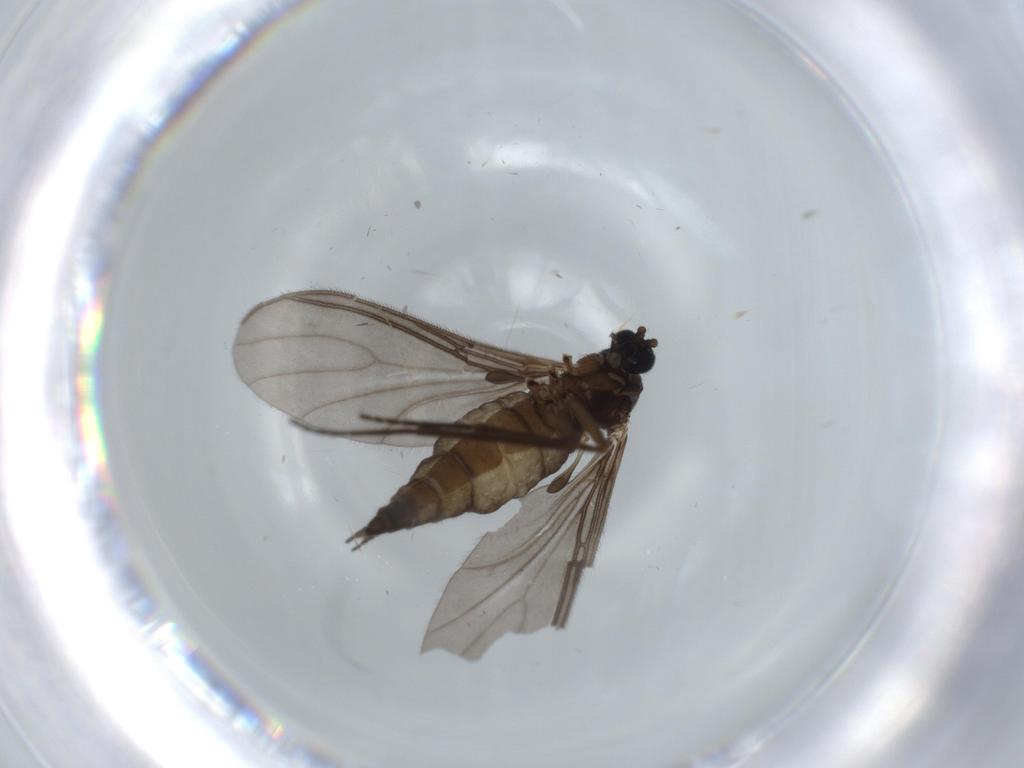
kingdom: Animalia
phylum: Arthropoda
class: Insecta
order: Diptera
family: Sciaridae
